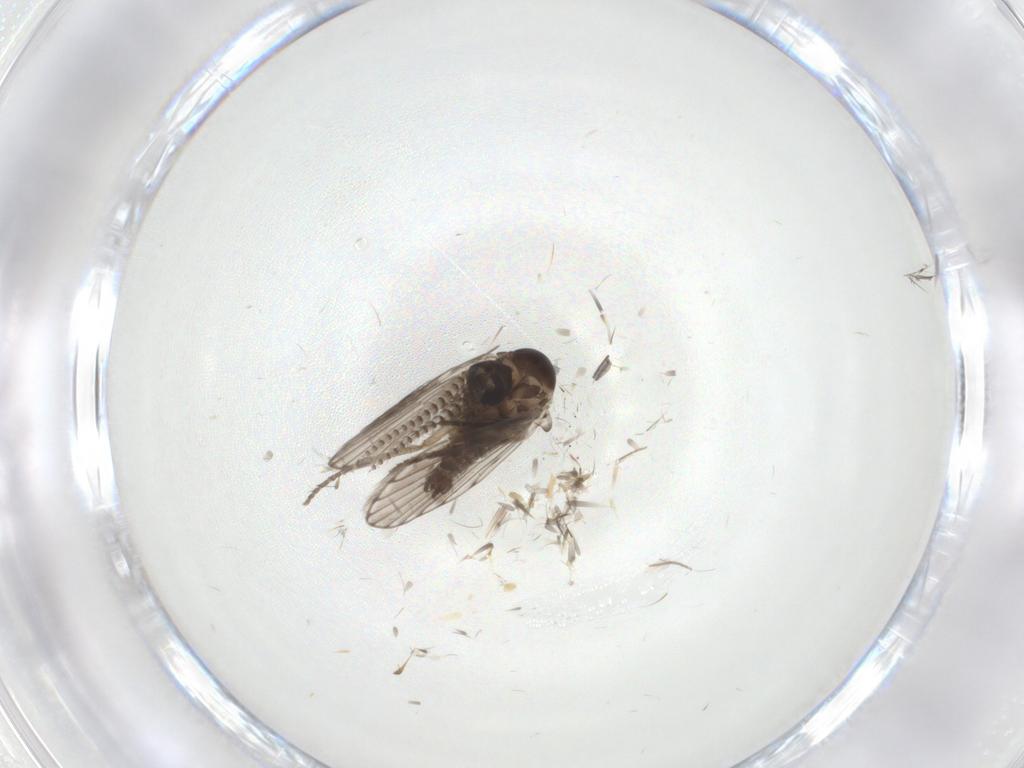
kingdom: Animalia
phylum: Arthropoda
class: Insecta
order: Diptera
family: Psychodidae
